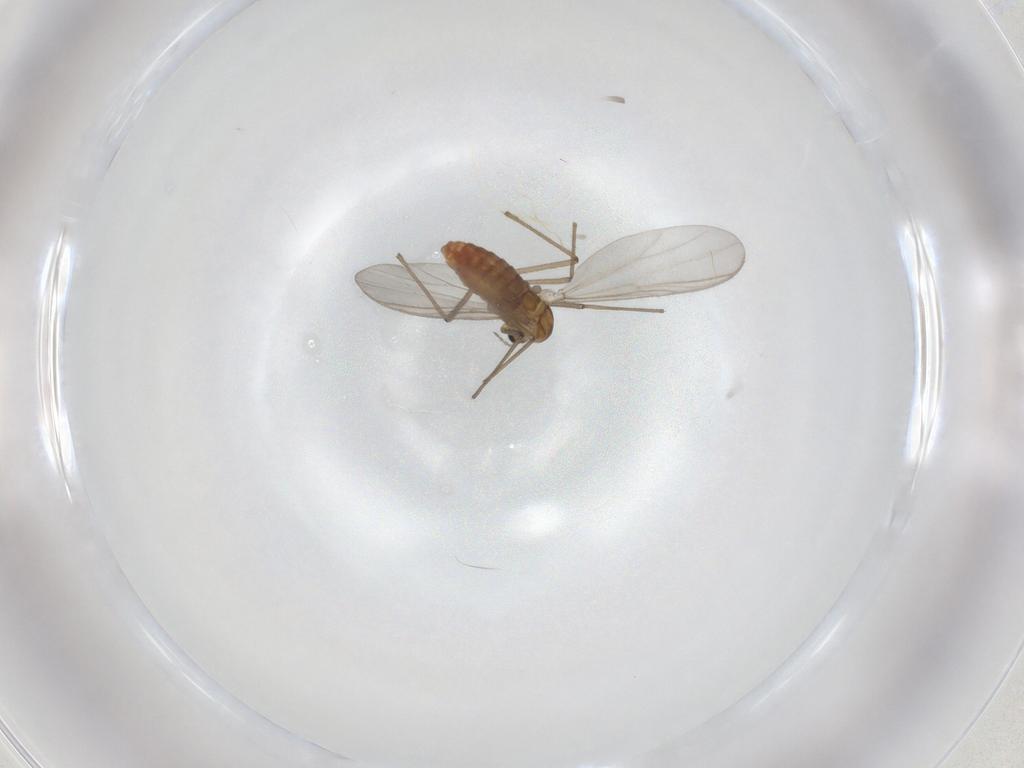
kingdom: Animalia
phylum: Arthropoda
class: Insecta
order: Diptera
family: Chironomidae
